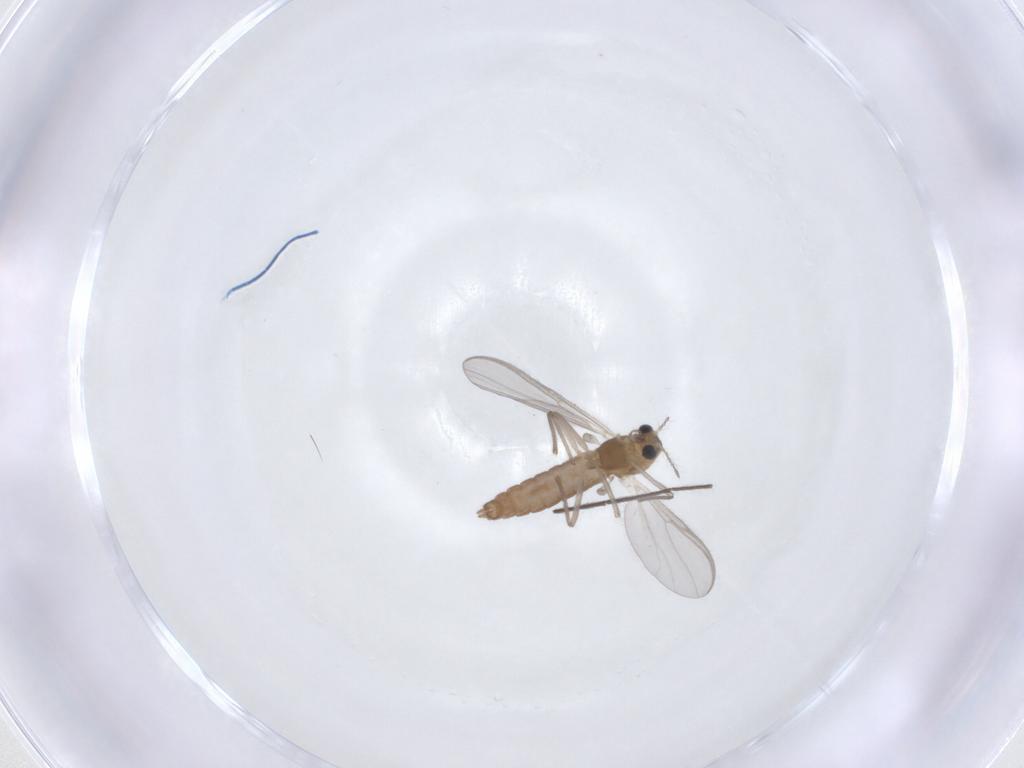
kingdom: Animalia
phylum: Arthropoda
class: Insecta
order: Diptera
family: Chironomidae
